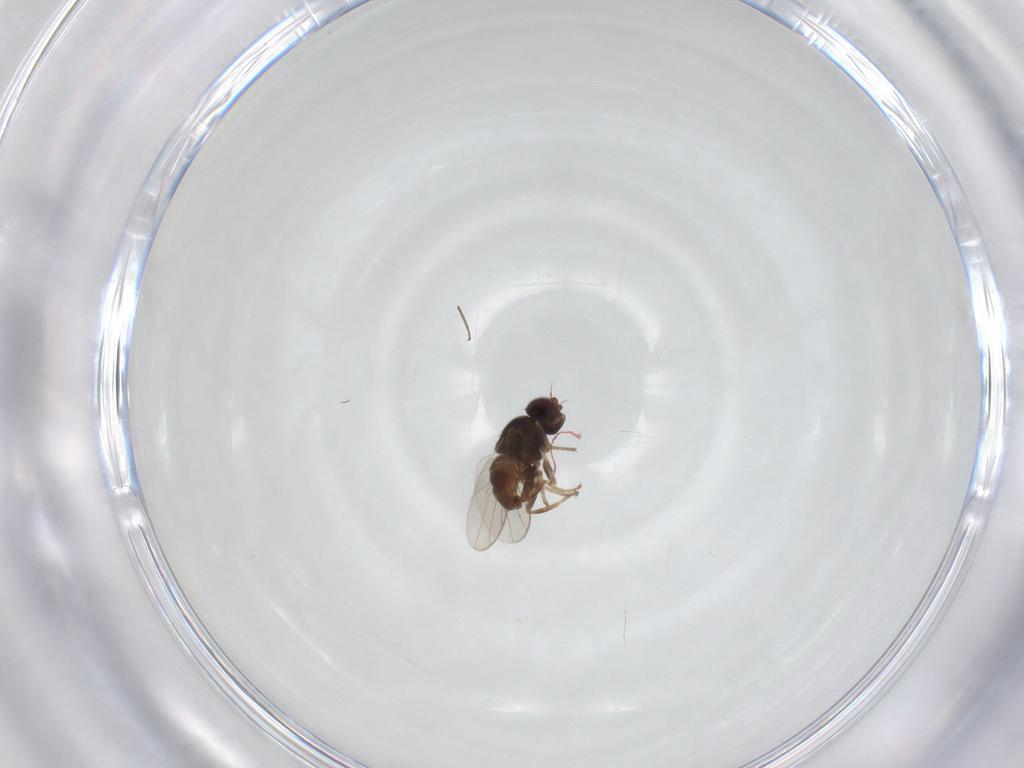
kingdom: Animalia
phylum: Arthropoda
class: Insecta
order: Diptera
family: Chloropidae
